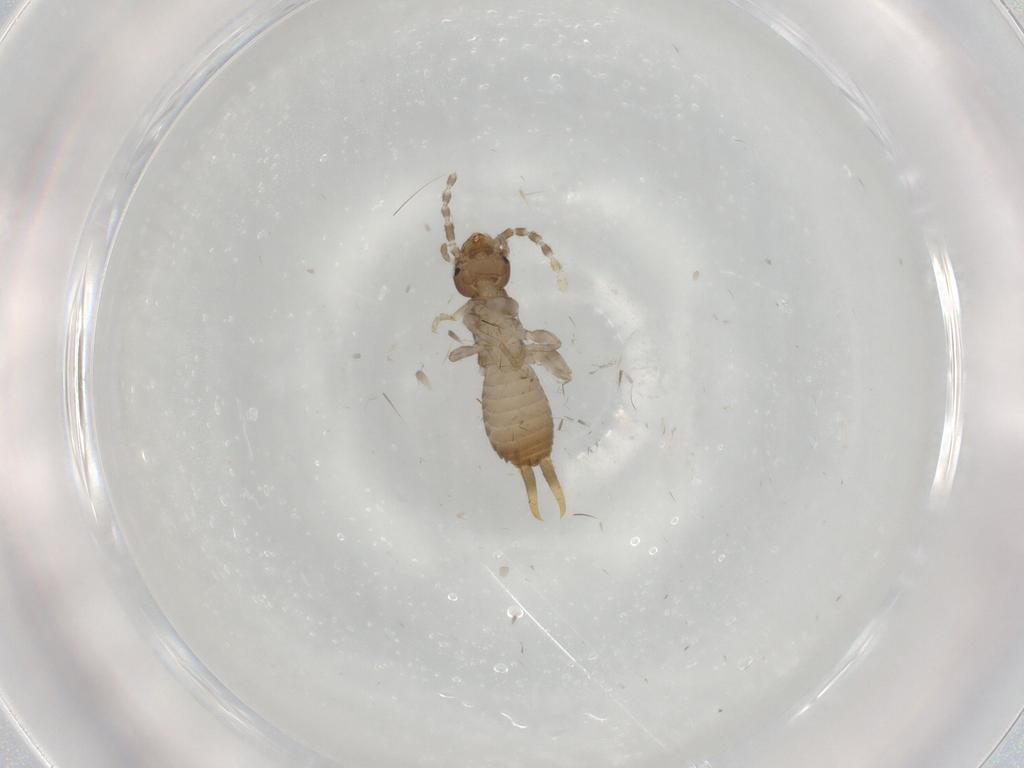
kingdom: Animalia
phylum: Arthropoda
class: Insecta
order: Dermaptera
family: Labiduridae
